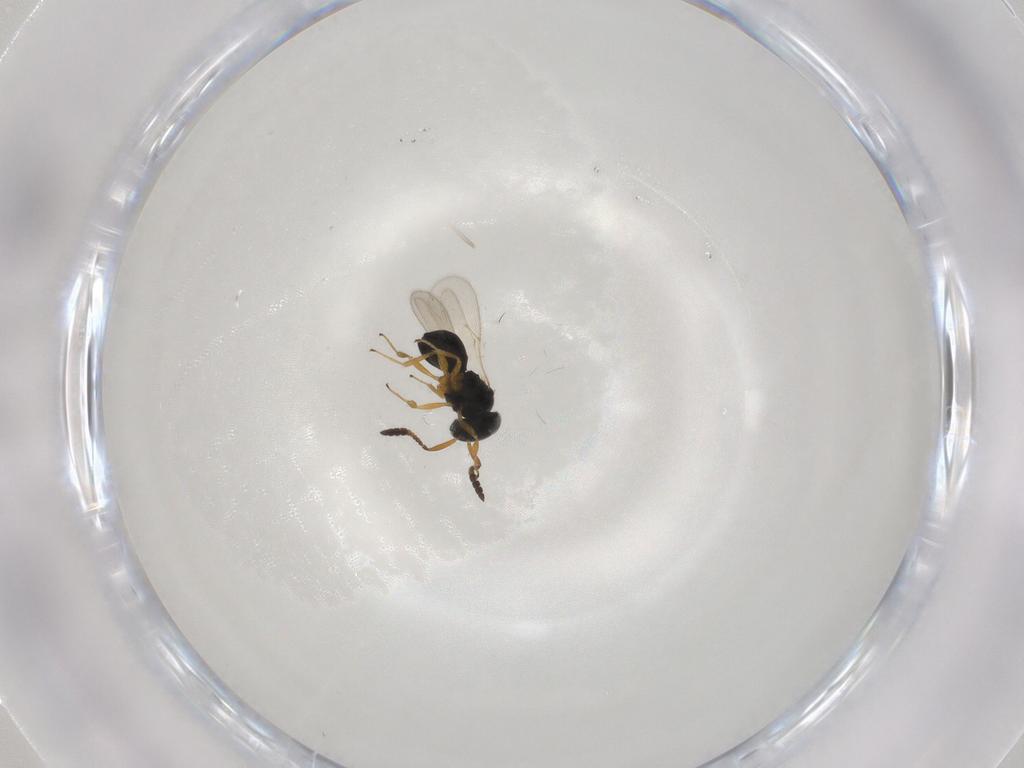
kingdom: Animalia
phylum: Arthropoda
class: Insecta
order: Hymenoptera
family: Scelionidae
